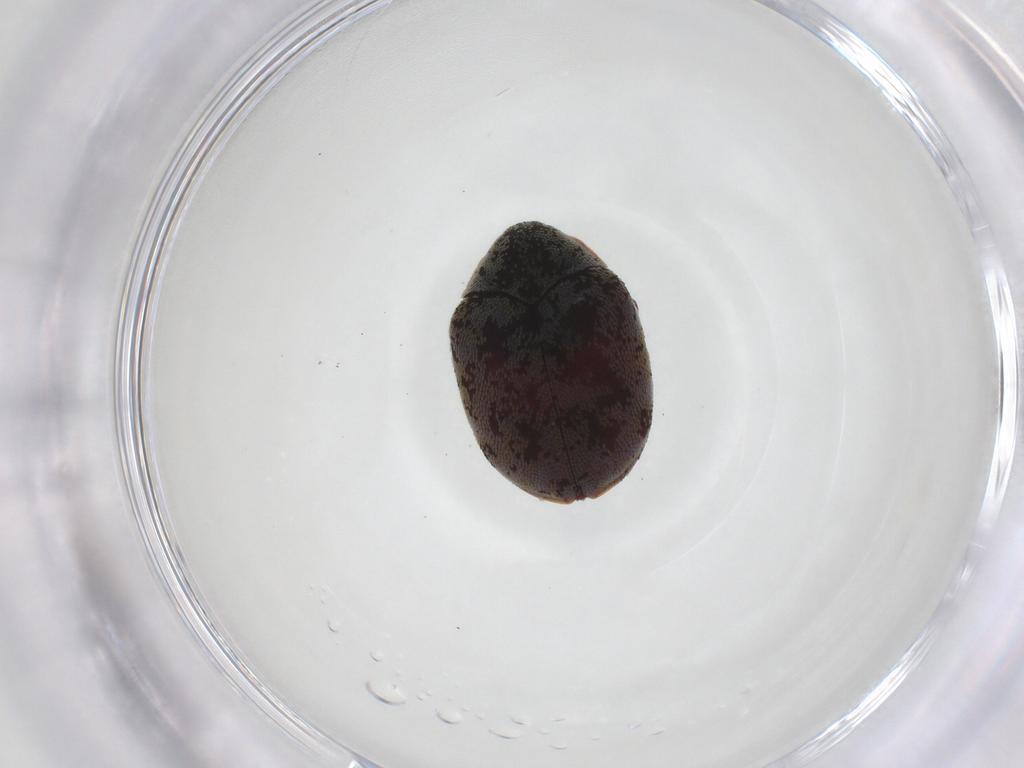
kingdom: Animalia
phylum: Arthropoda
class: Insecta
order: Coleoptera
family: Dermestidae
